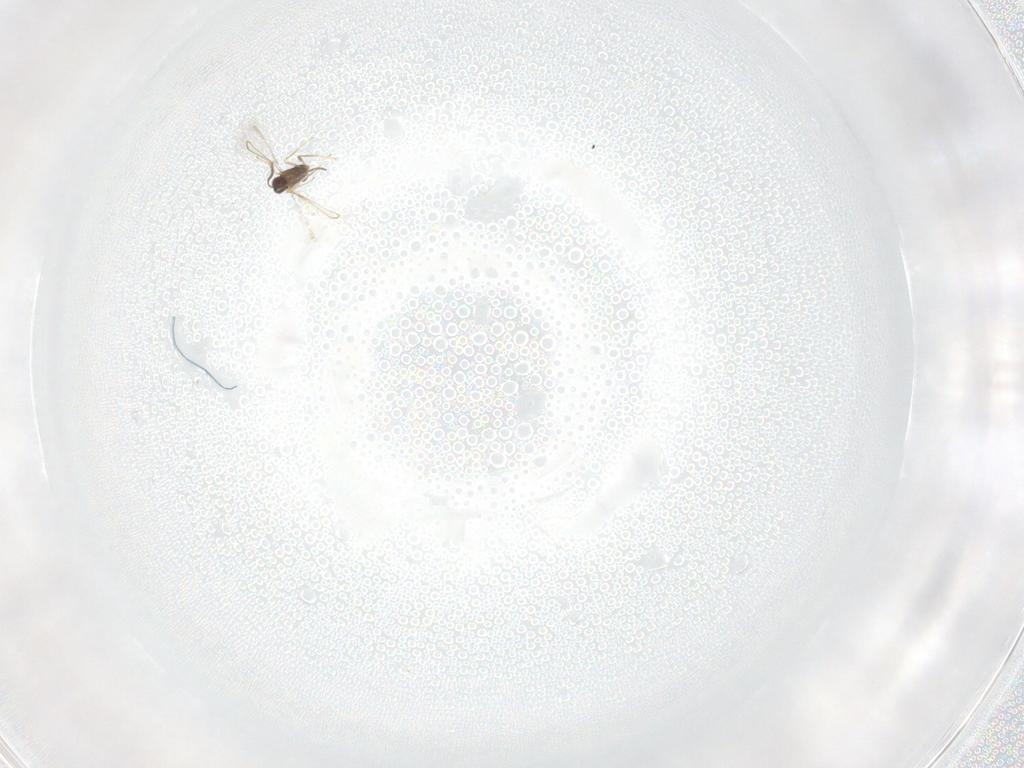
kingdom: Animalia
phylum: Arthropoda
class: Insecta
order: Hymenoptera
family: Mymaridae
